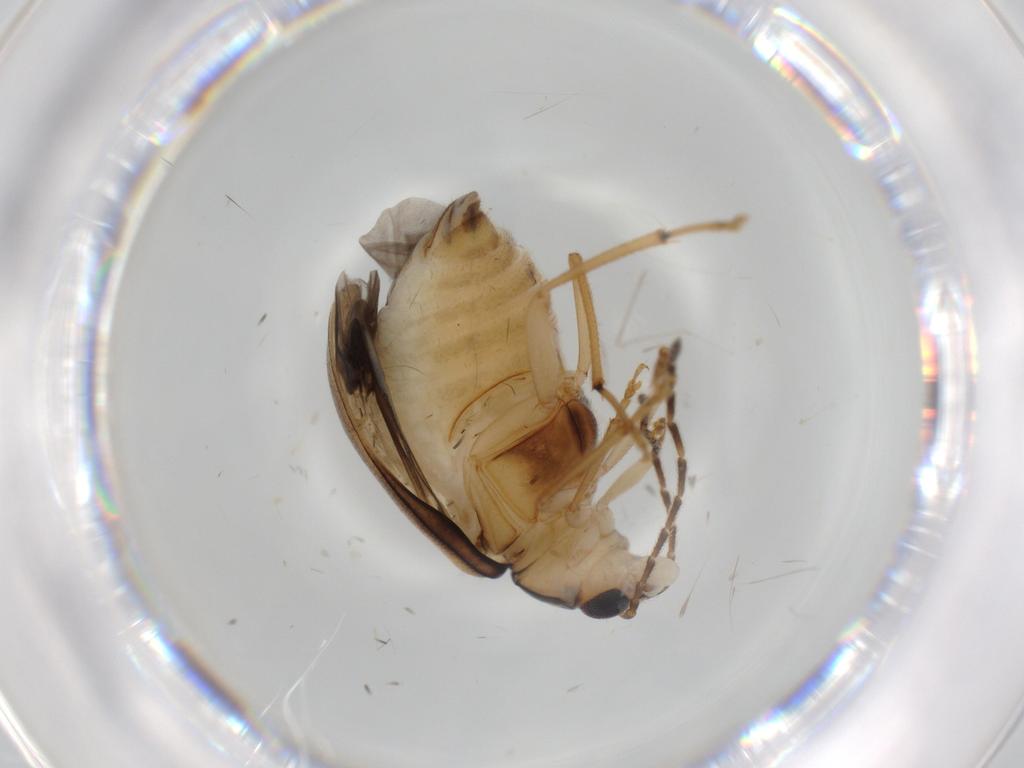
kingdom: Animalia
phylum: Arthropoda
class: Insecta
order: Coleoptera
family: Chrysomelidae
